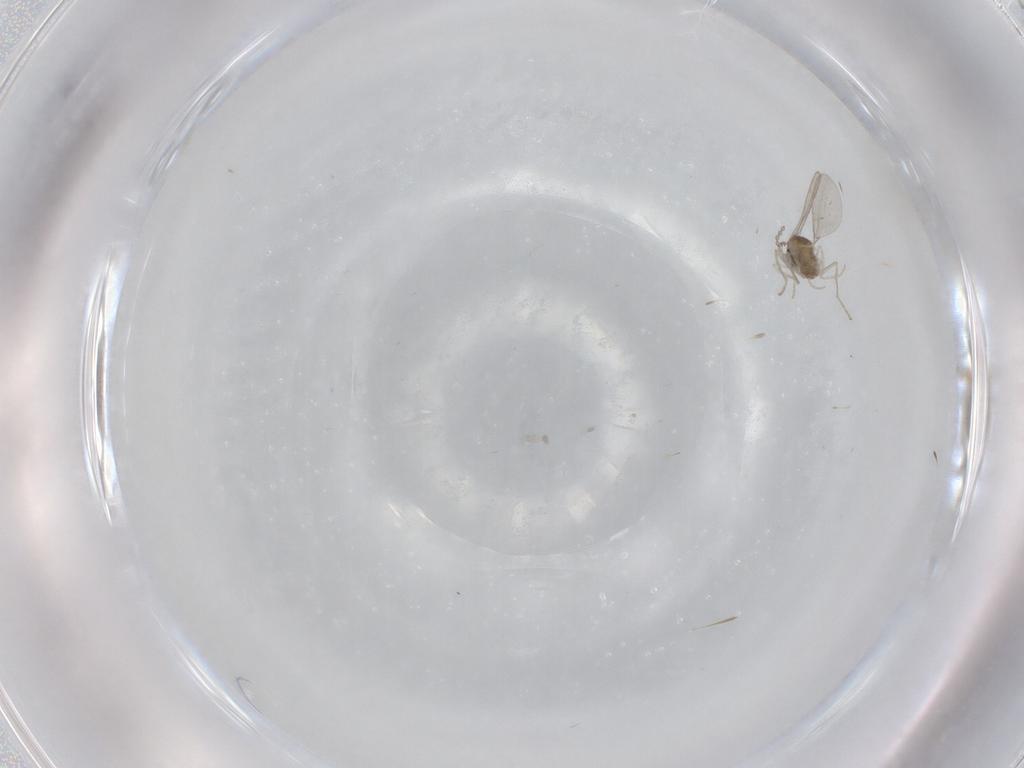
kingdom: Animalia
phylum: Arthropoda
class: Insecta
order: Diptera
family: Cecidomyiidae
